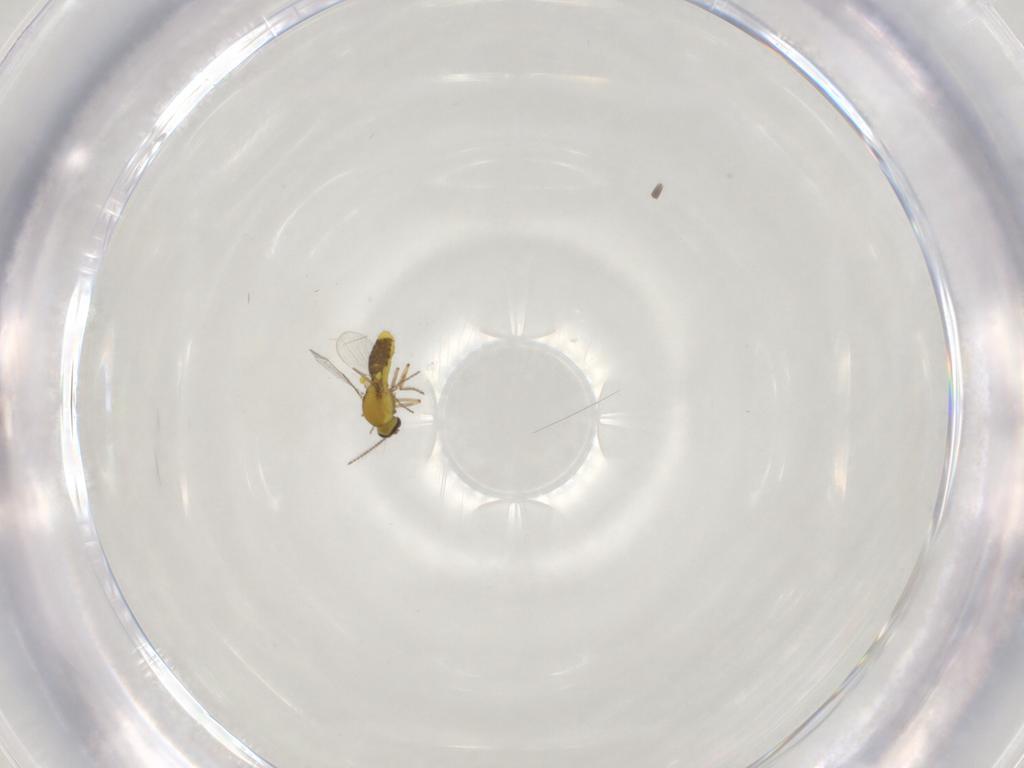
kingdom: Animalia
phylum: Arthropoda
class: Insecta
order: Diptera
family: Ceratopogonidae
